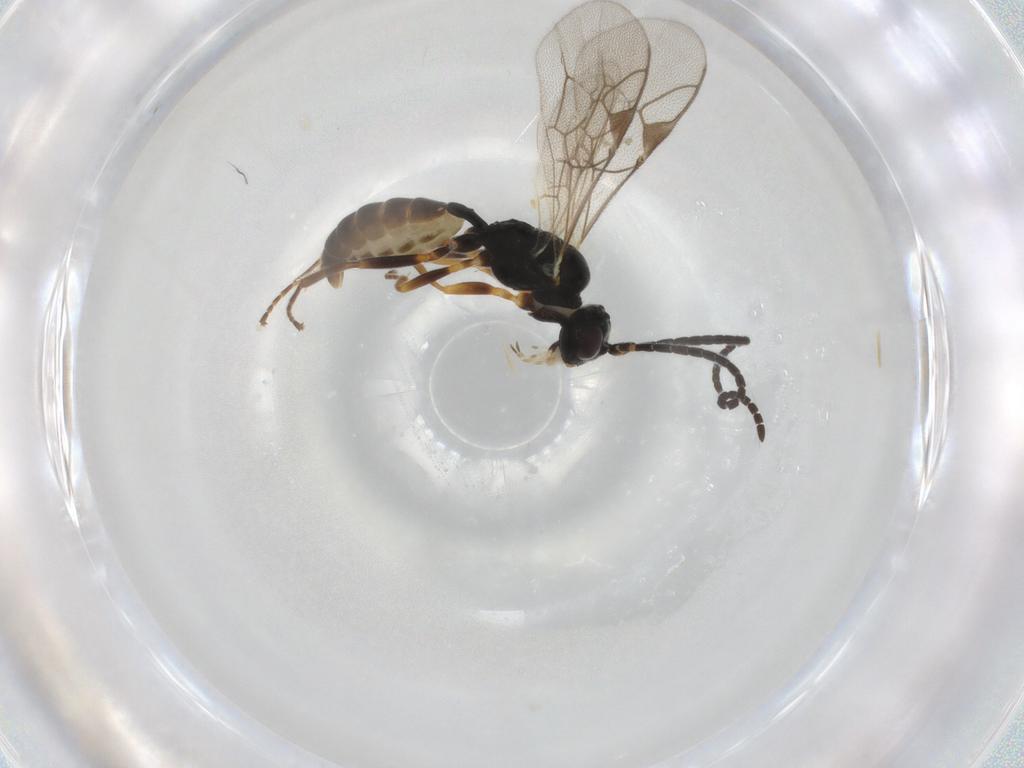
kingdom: Animalia
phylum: Arthropoda
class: Insecta
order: Hymenoptera
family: Ichneumonidae
